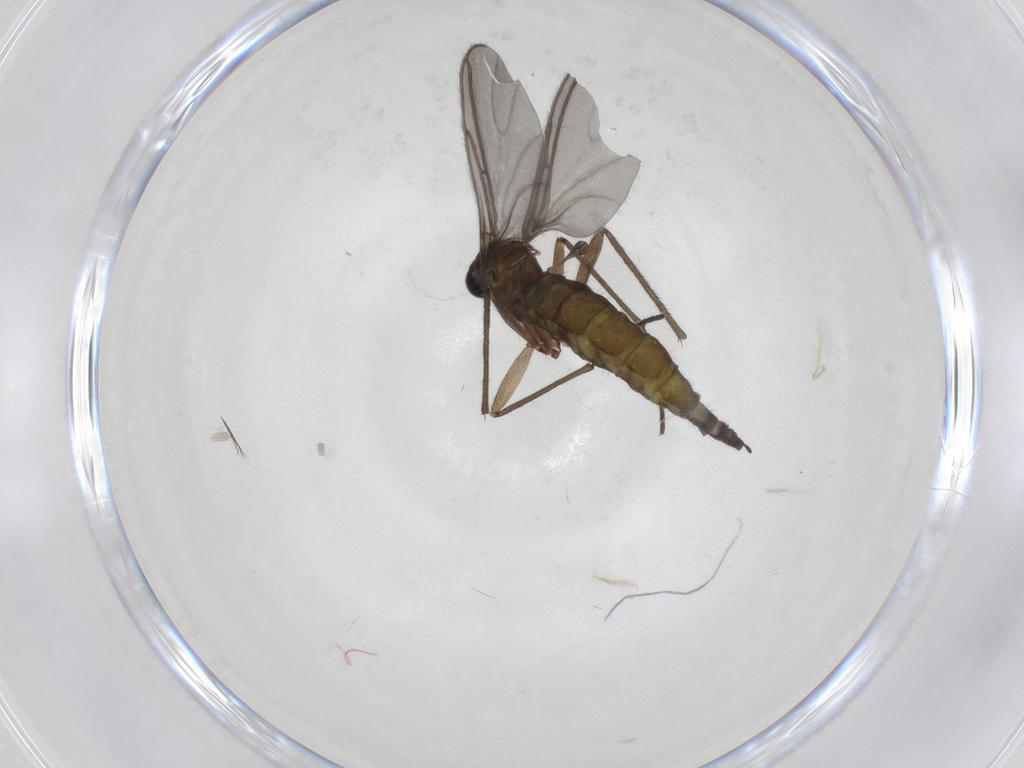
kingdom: Animalia
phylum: Arthropoda
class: Insecta
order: Diptera
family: Sciaridae
